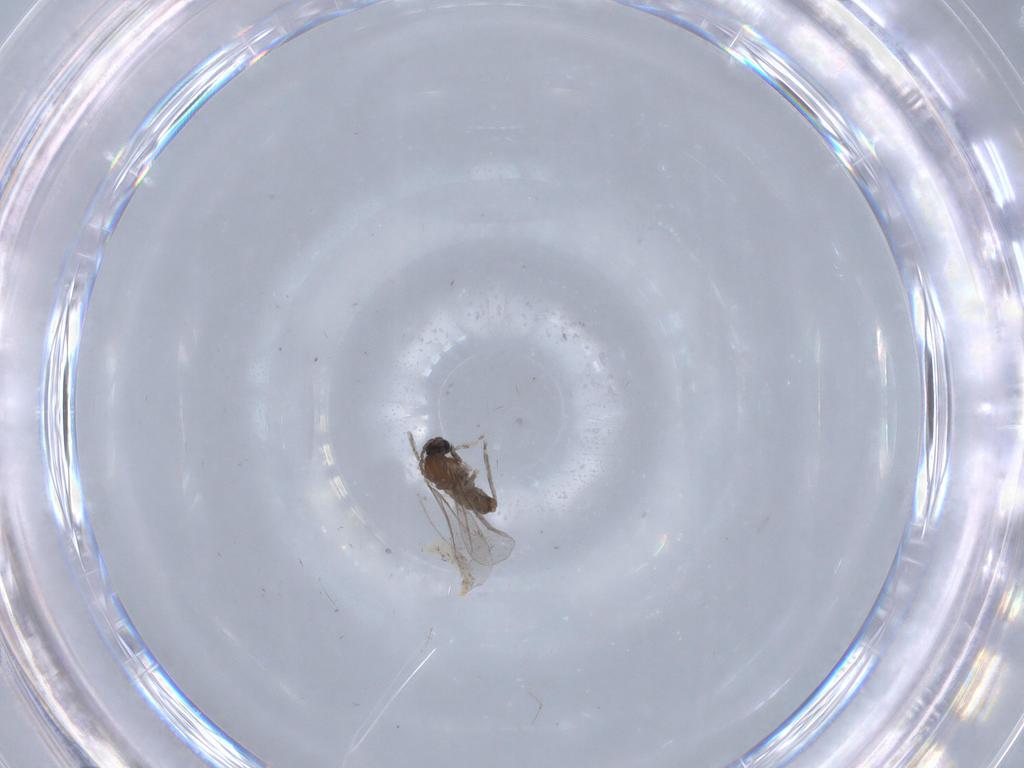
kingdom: Animalia
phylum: Arthropoda
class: Insecta
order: Diptera
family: Cecidomyiidae
